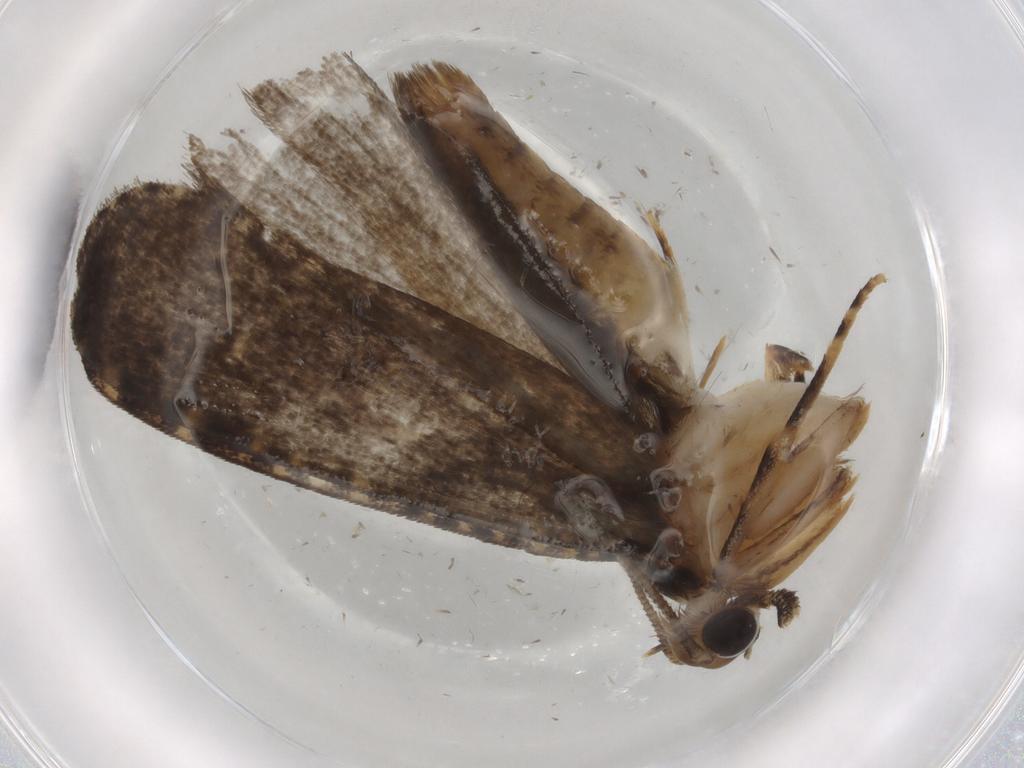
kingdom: Animalia
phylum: Arthropoda
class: Insecta
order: Lepidoptera
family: Tineidae
